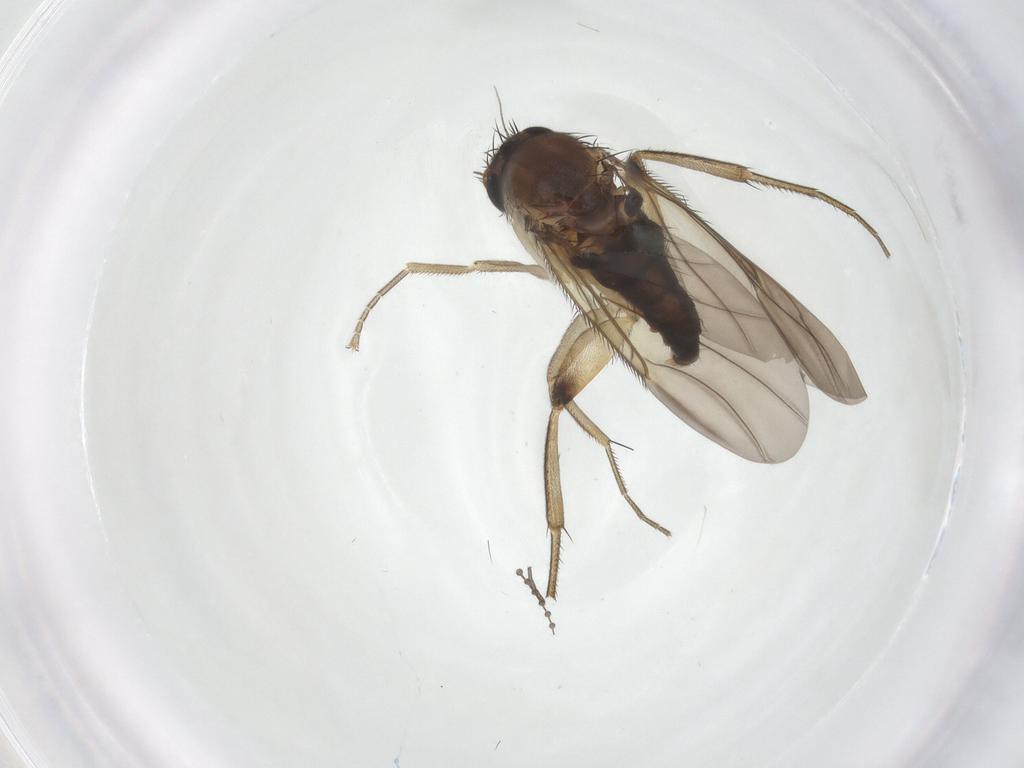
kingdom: Animalia
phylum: Arthropoda
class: Insecta
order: Diptera
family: Phoridae
